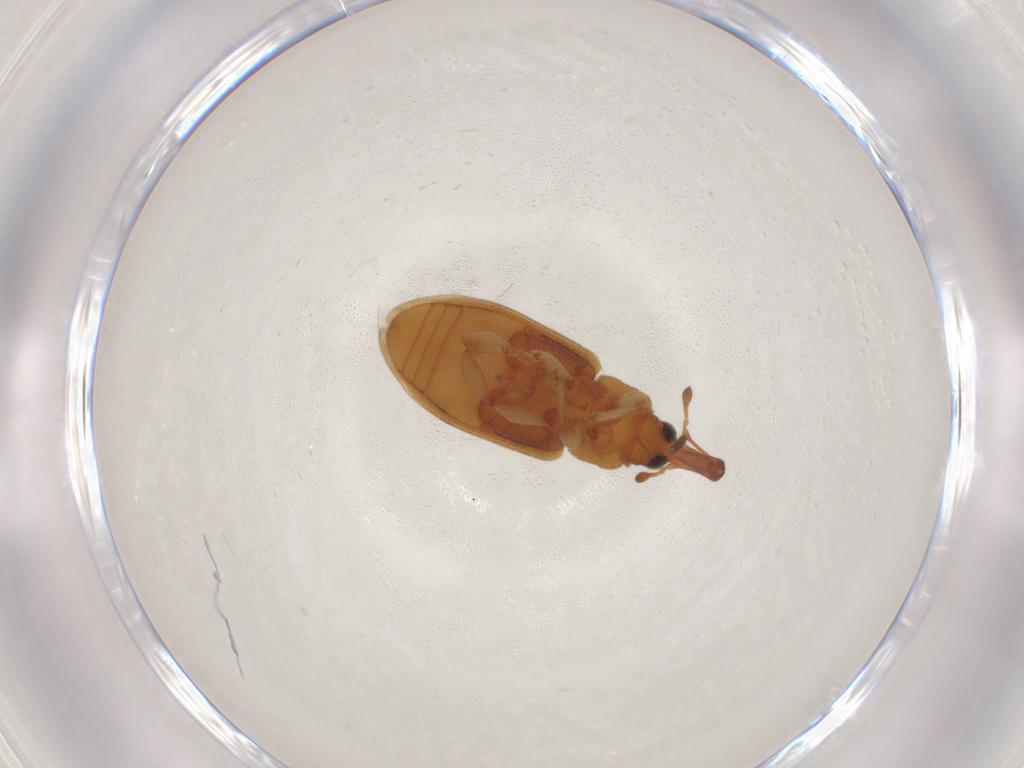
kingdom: Animalia
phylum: Arthropoda
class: Insecta
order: Coleoptera
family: Curculionidae
